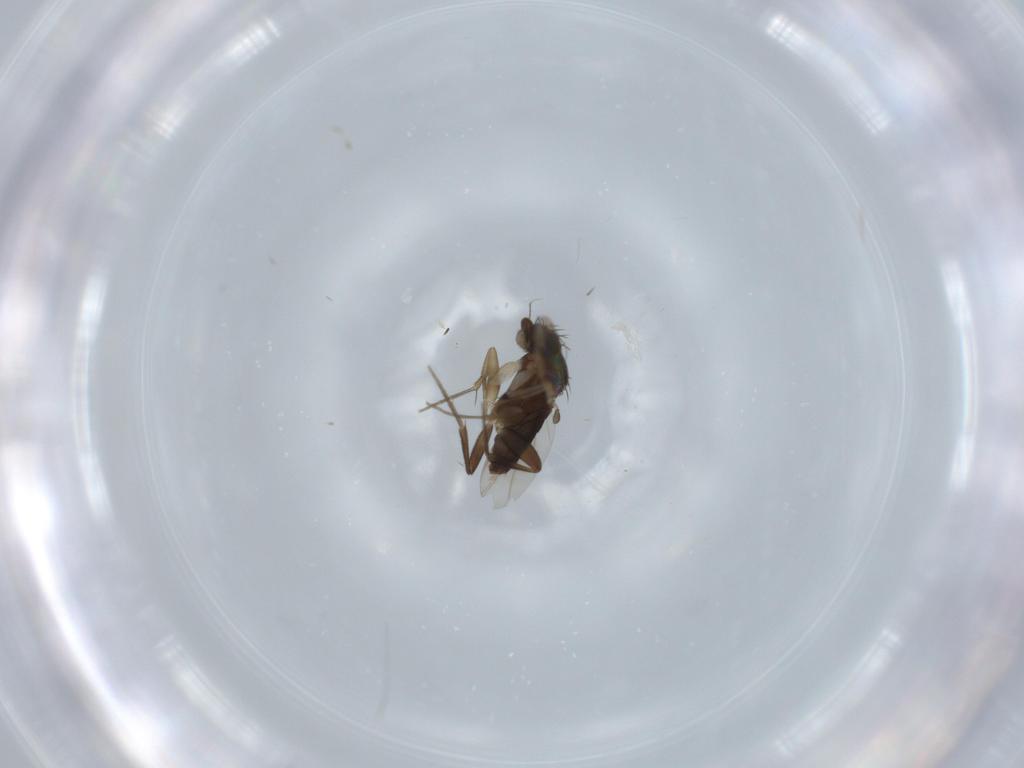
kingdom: Animalia
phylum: Arthropoda
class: Insecta
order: Diptera
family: Phoridae
